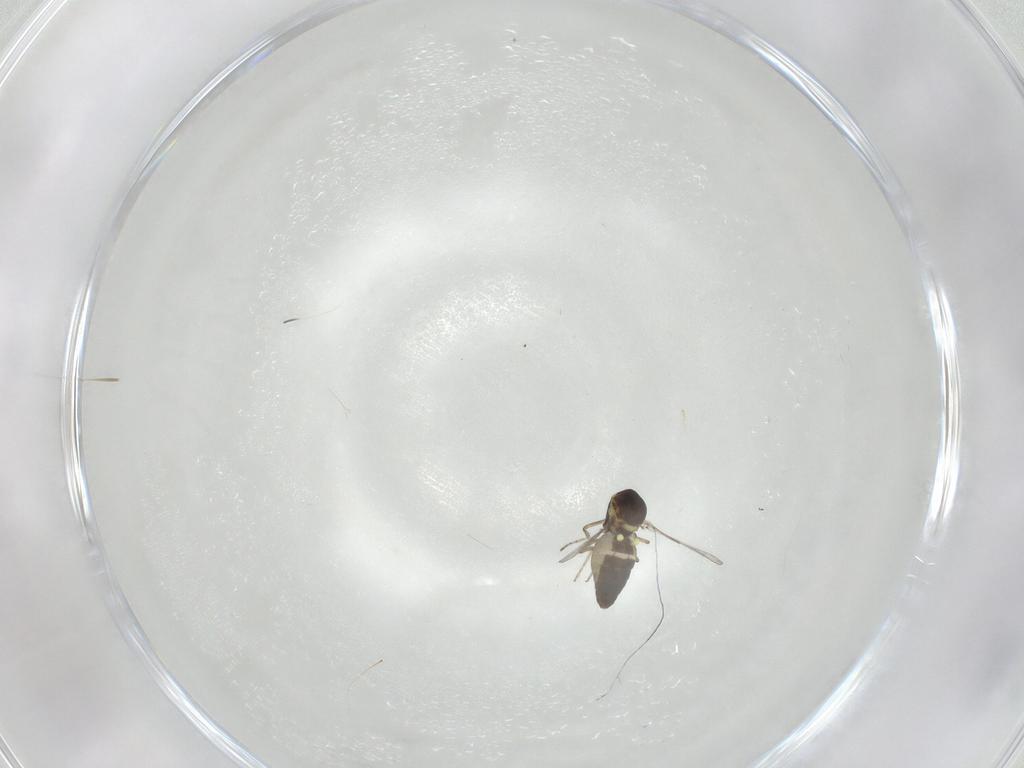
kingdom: Animalia
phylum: Arthropoda
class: Insecta
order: Diptera
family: Ceratopogonidae
